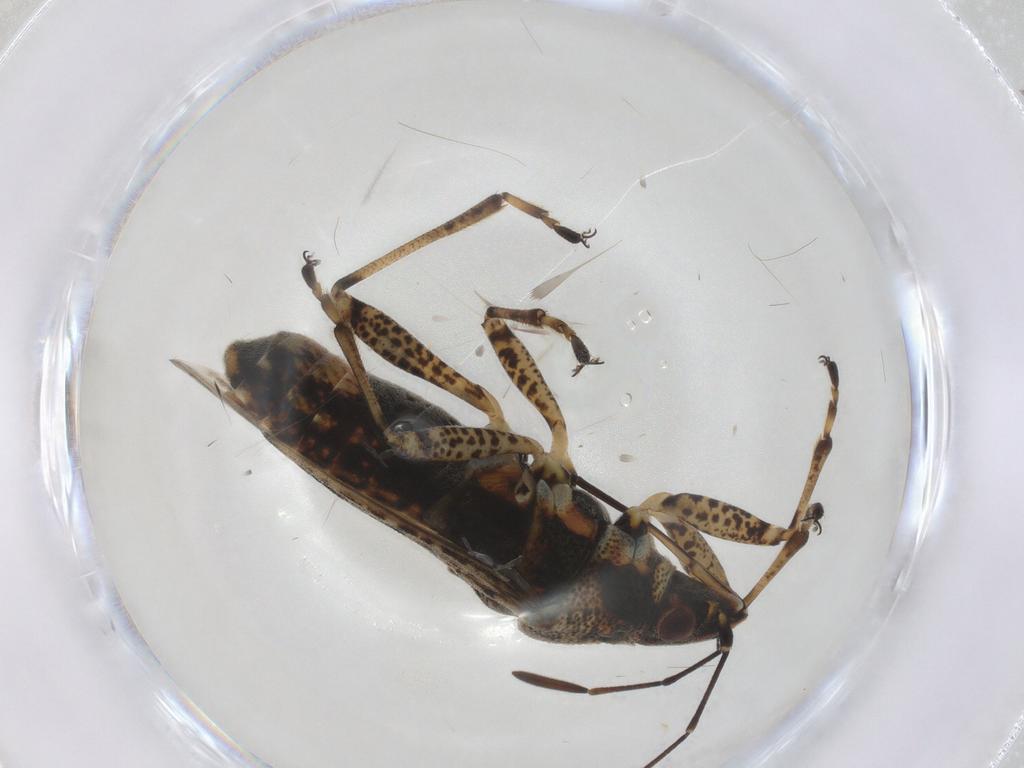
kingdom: Animalia
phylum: Arthropoda
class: Insecta
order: Hemiptera
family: Lygaeidae
